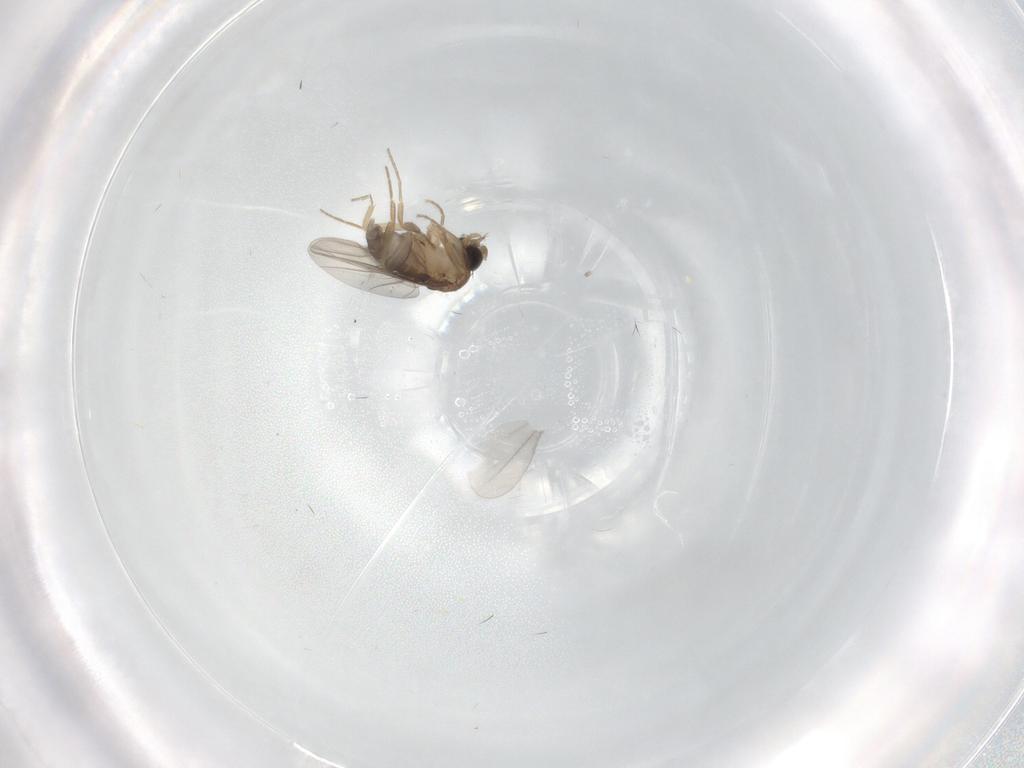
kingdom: Animalia
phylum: Arthropoda
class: Insecta
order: Diptera
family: Cecidomyiidae
